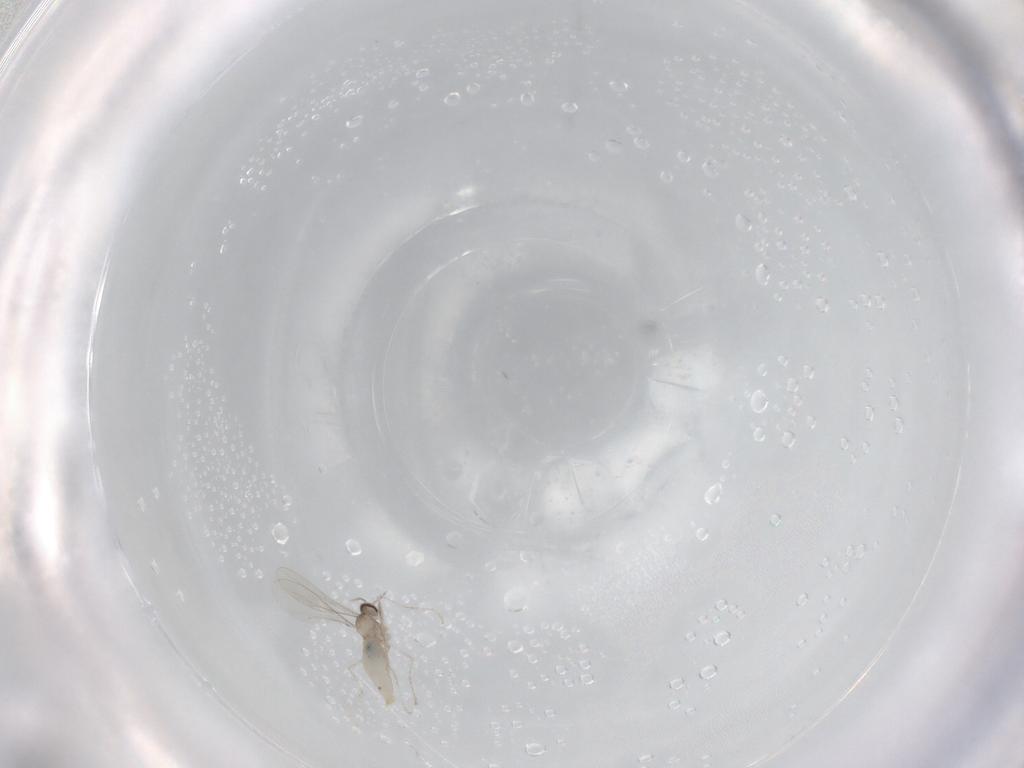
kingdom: Animalia
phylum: Arthropoda
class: Insecta
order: Diptera
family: Cecidomyiidae
